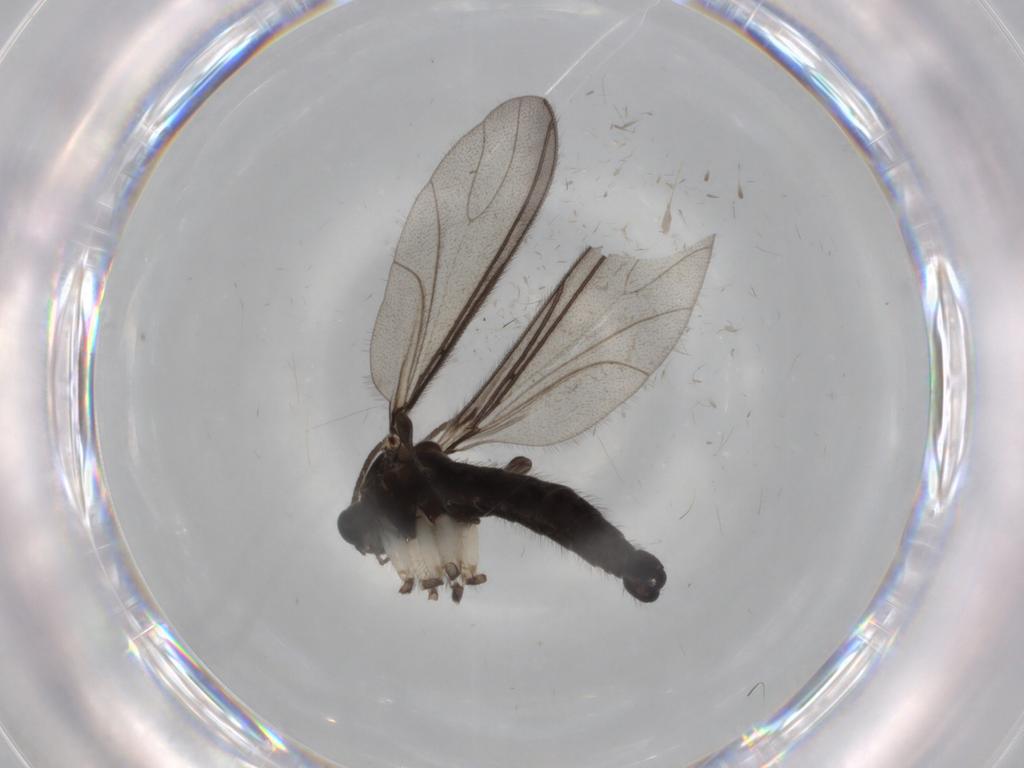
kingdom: Animalia
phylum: Arthropoda
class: Insecta
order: Diptera
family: Sciaridae
